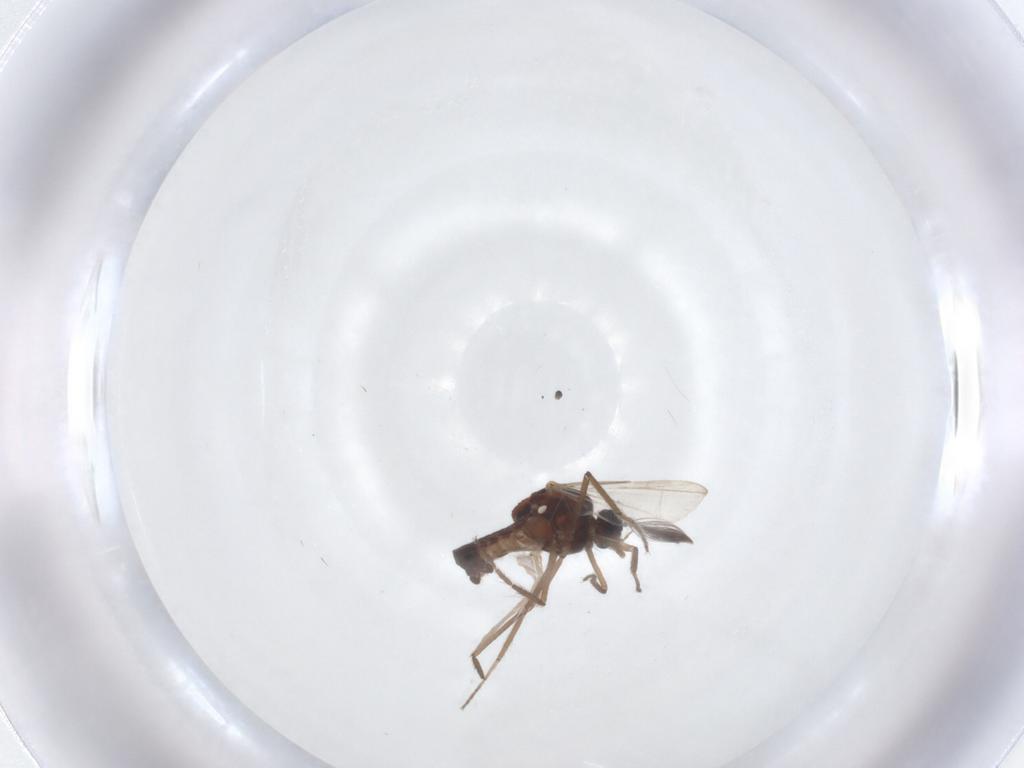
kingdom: Animalia
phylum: Arthropoda
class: Insecta
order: Diptera
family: Ceratopogonidae
